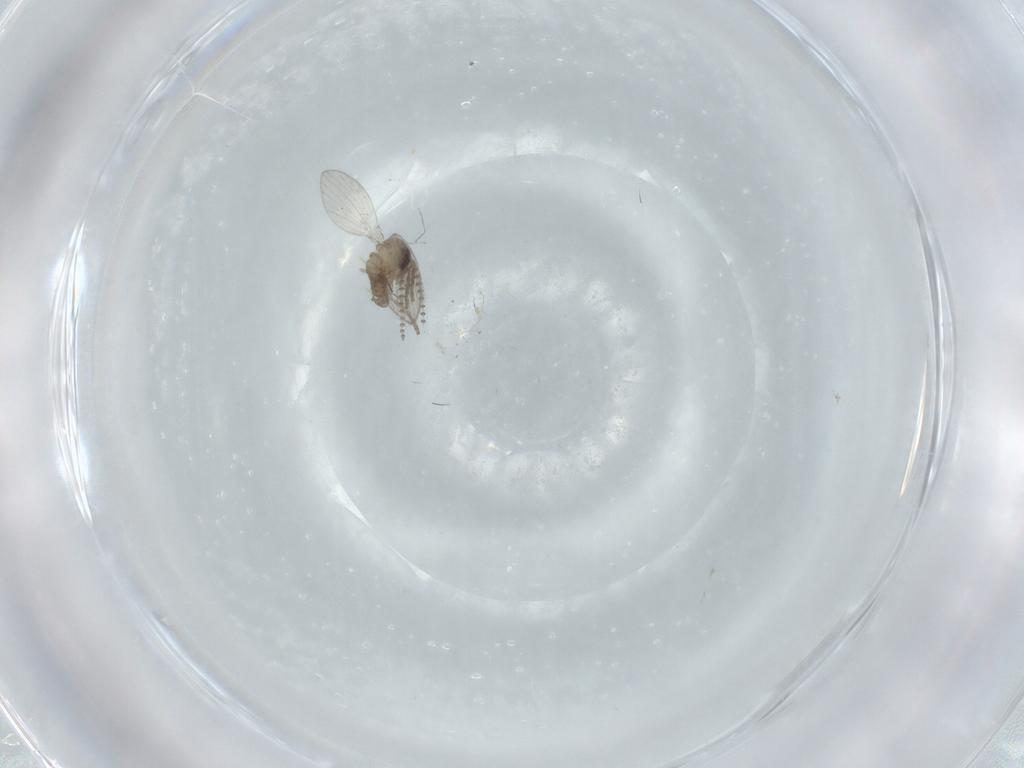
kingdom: Animalia
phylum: Arthropoda
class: Insecta
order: Diptera
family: Psychodidae
